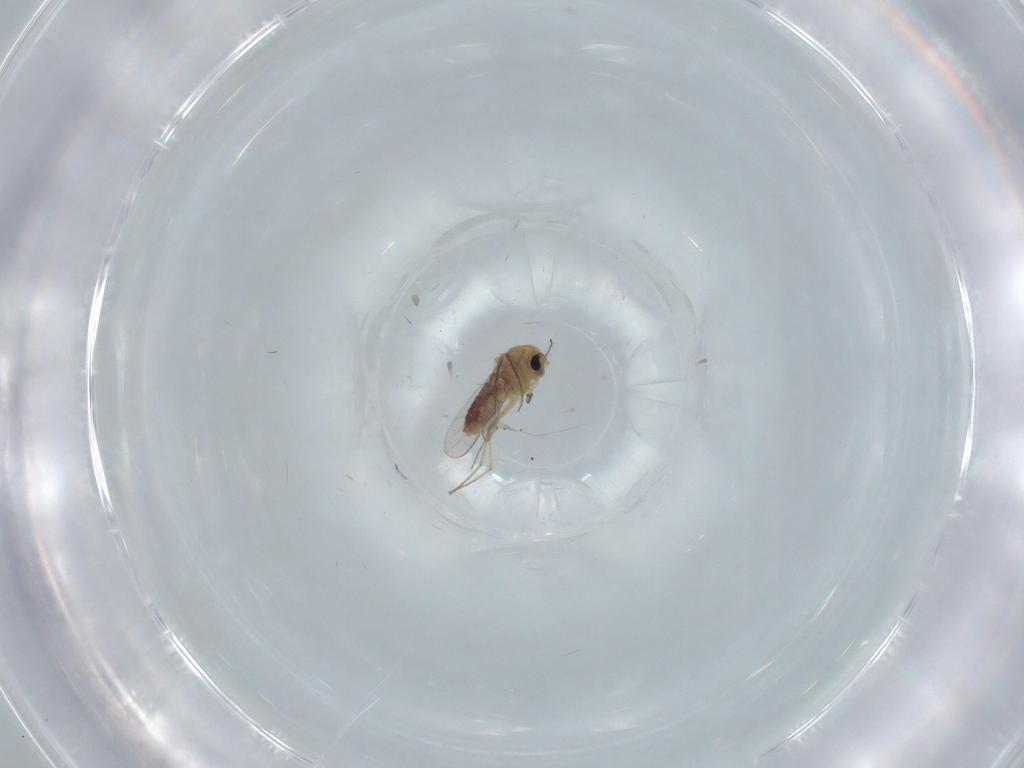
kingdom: Animalia
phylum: Arthropoda
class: Insecta
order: Diptera
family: Chironomidae
